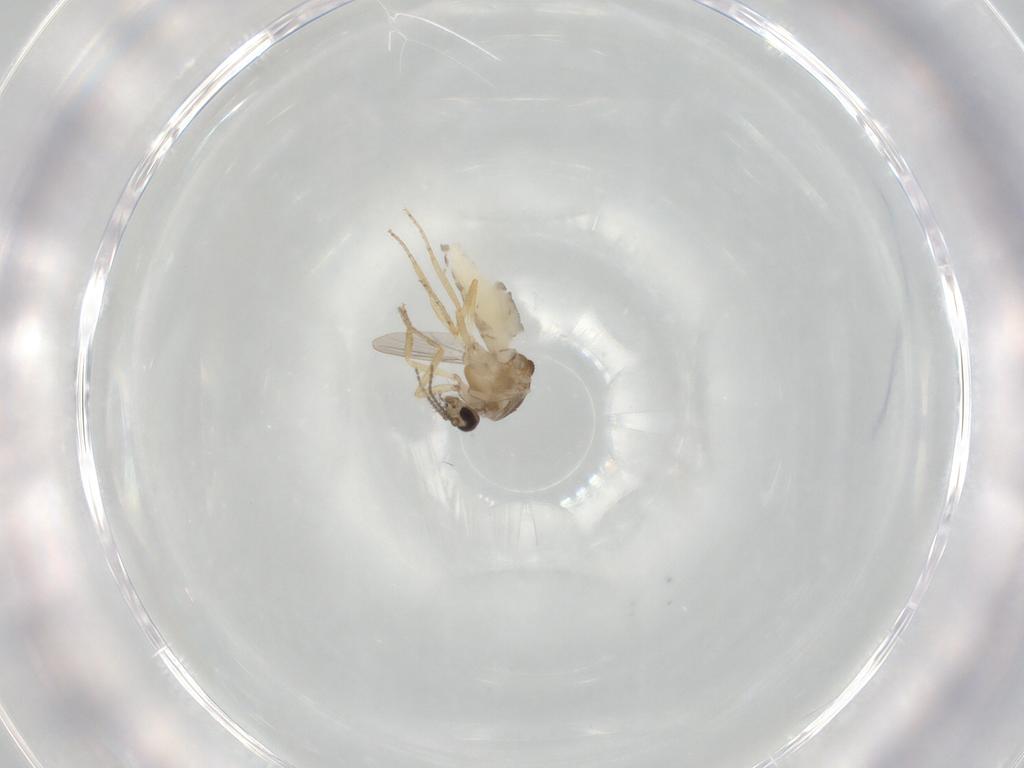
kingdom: Animalia
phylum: Arthropoda
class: Insecta
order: Diptera
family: Ceratopogonidae
